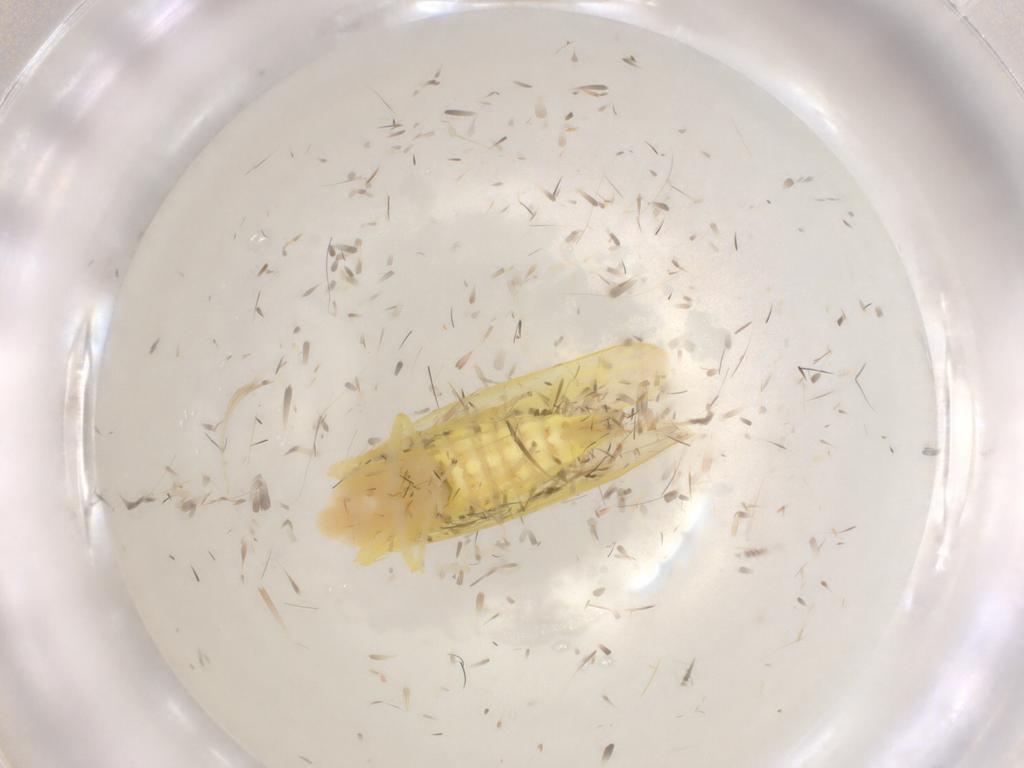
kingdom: Animalia
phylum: Arthropoda
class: Insecta
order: Hemiptera
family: Cicadellidae
